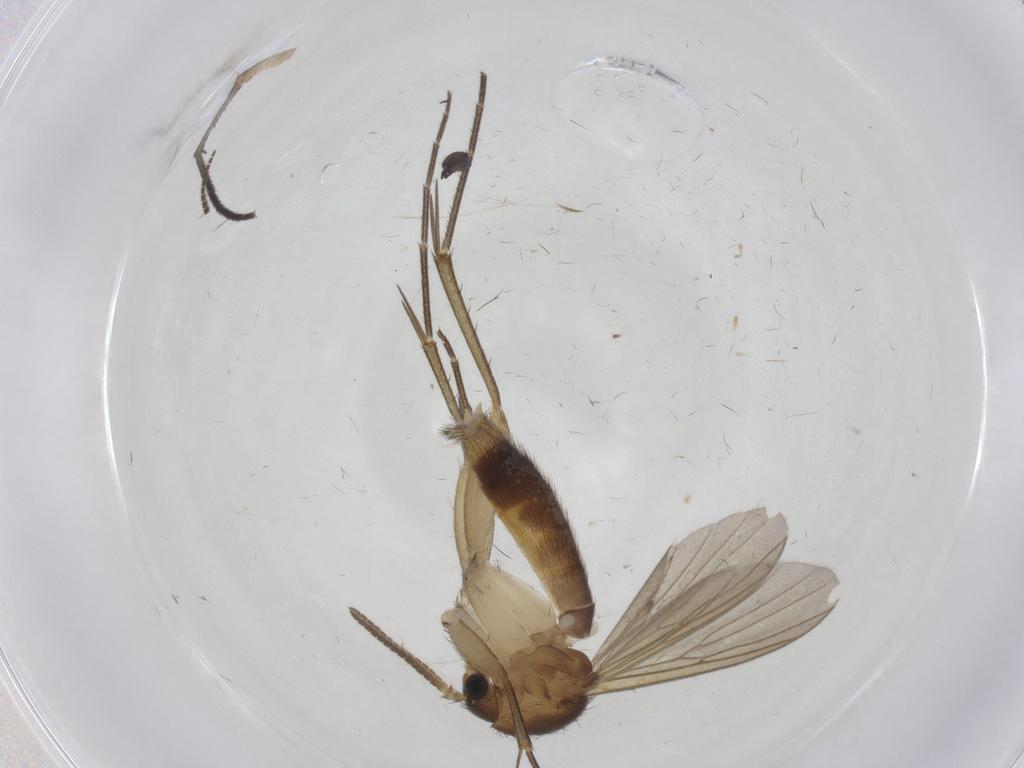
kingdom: Animalia
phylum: Arthropoda
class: Insecta
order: Diptera
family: Mycetophilidae
